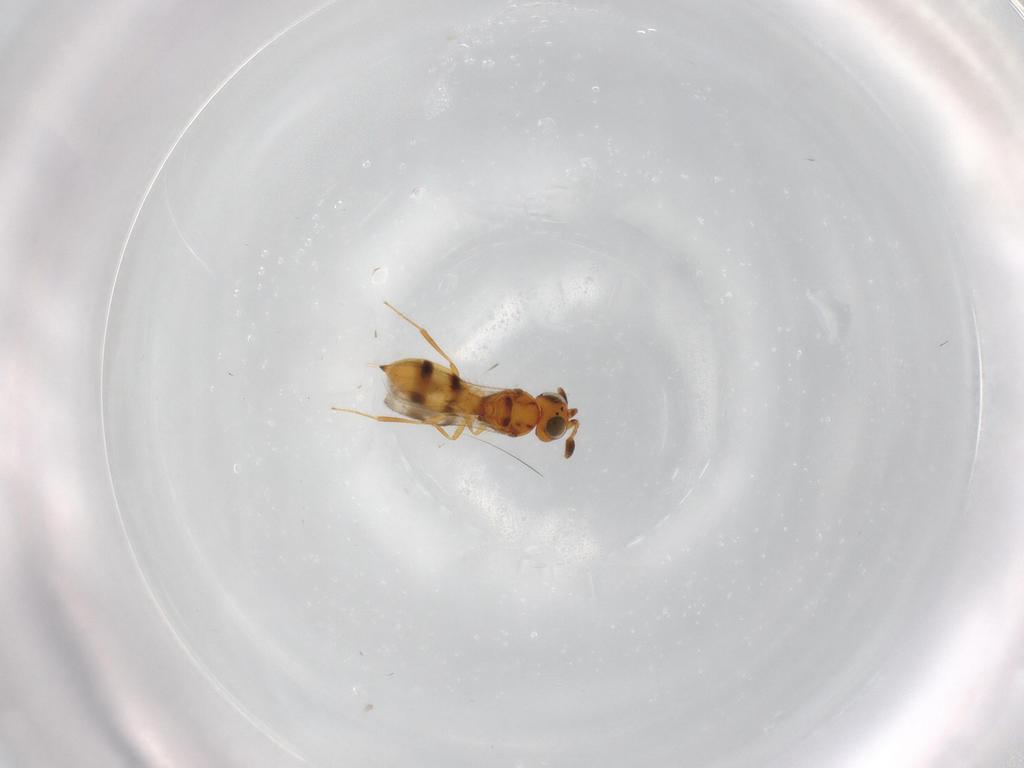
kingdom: Animalia
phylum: Arthropoda
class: Insecta
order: Hymenoptera
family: Scelionidae
